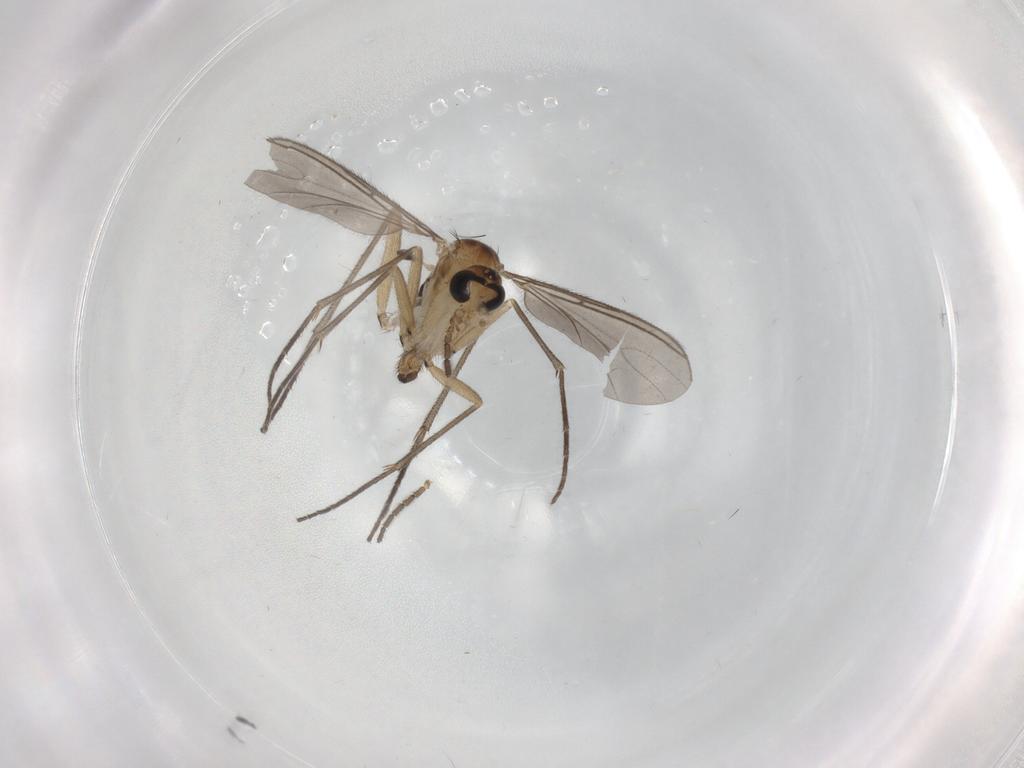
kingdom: Animalia
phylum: Arthropoda
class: Insecta
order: Diptera
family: Sciaridae
